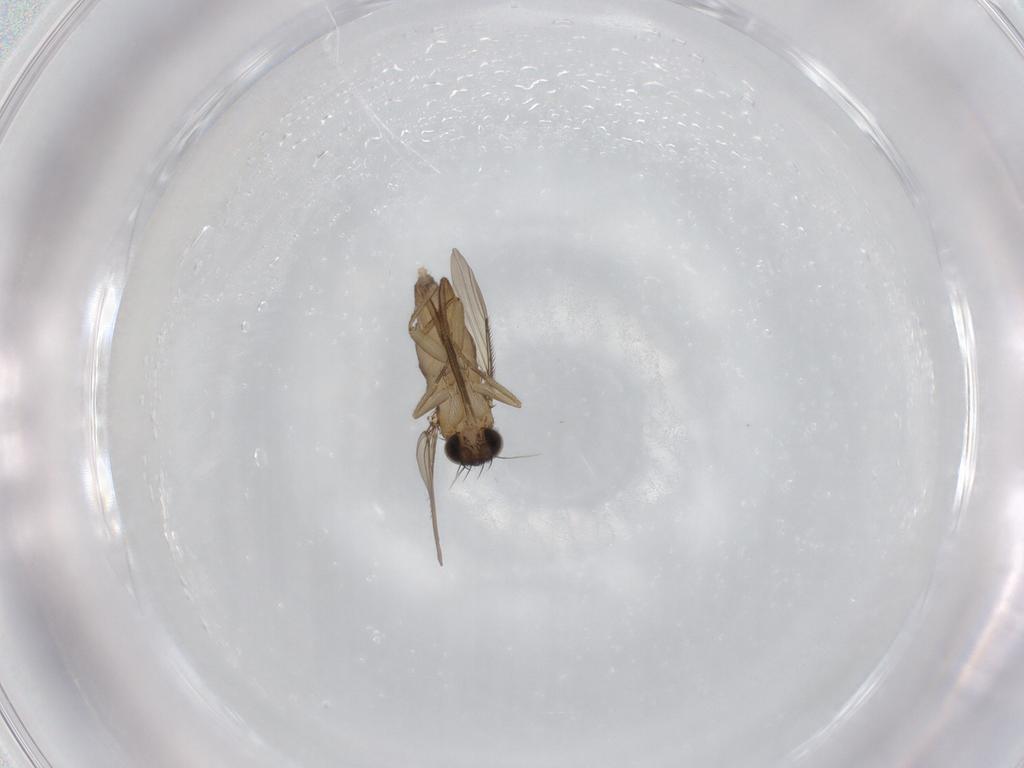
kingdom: Animalia
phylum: Arthropoda
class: Insecta
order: Diptera
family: Phoridae
